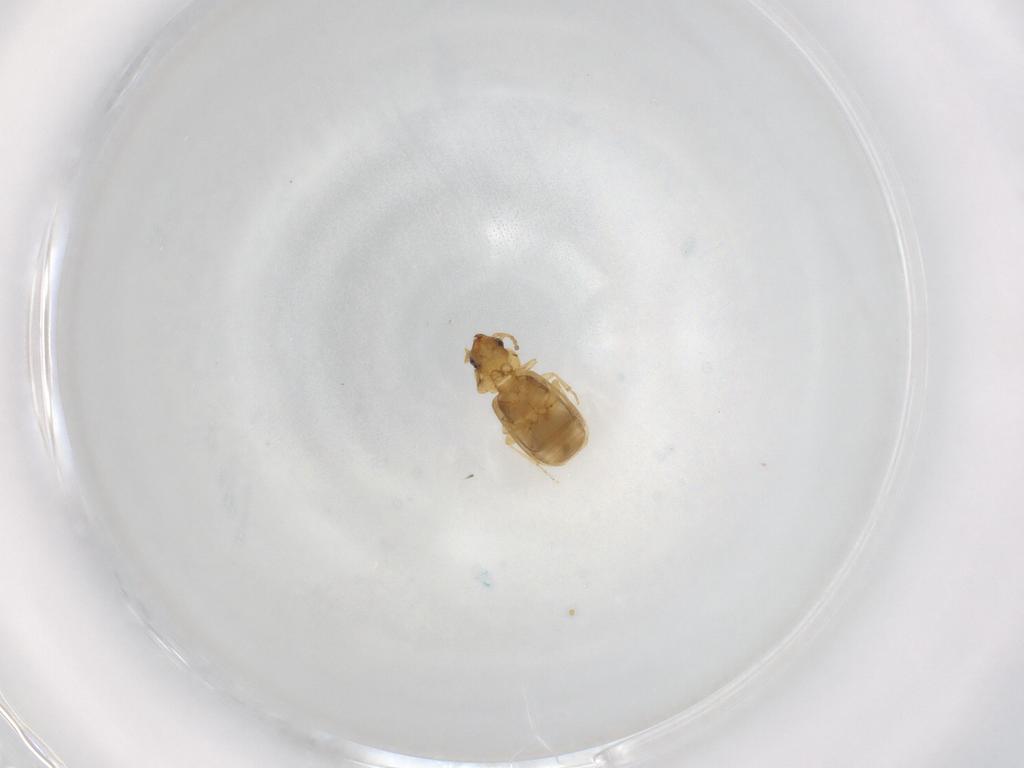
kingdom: Animalia
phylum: Arthropoda
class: Insecta
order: Coleoptera
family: Carabidae
